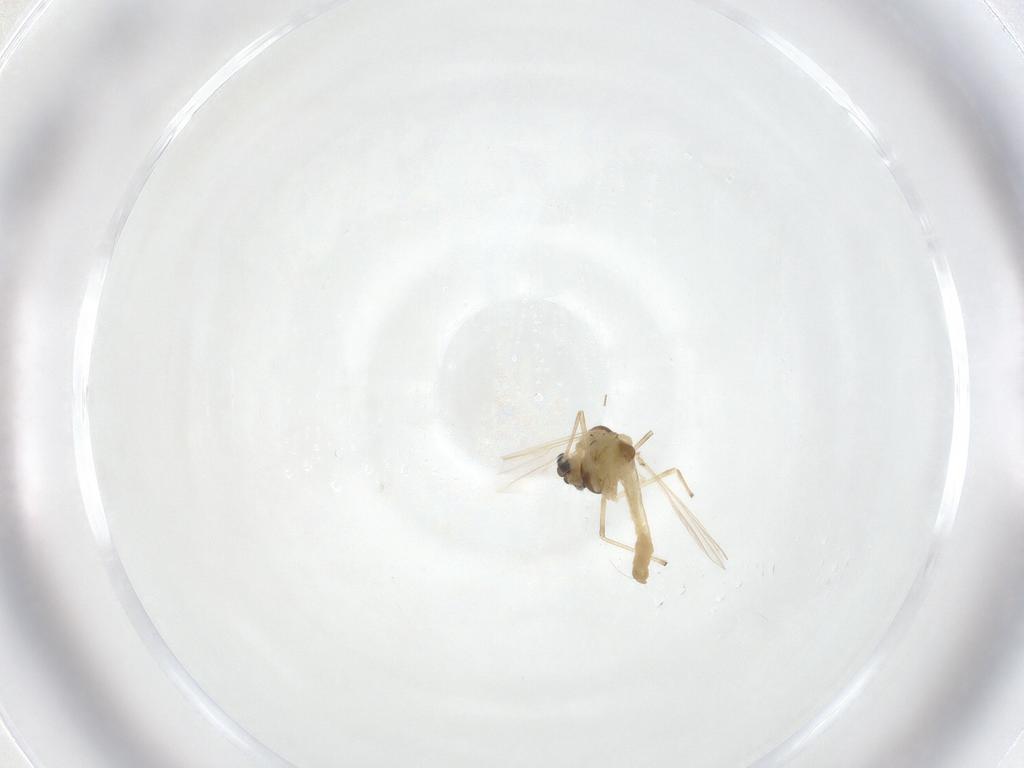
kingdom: Animalia
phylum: Arthropoda
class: Insecta
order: Diptera
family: Chironomidae
